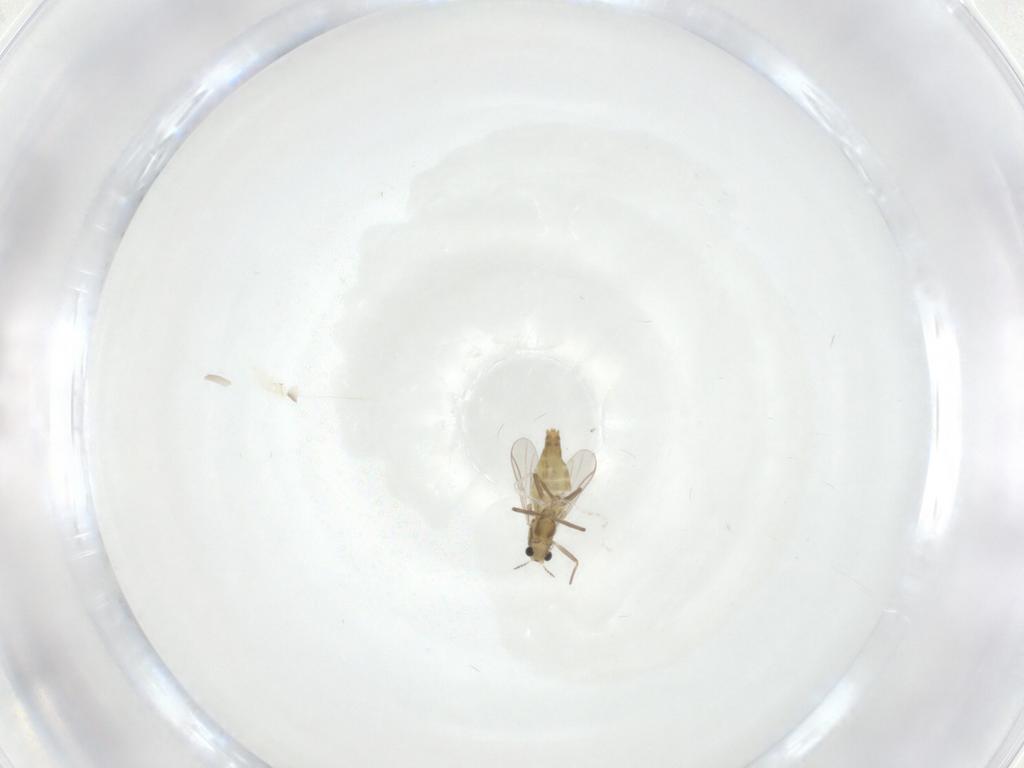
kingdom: Animalia
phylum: Arthropoda
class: Insecta
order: Diptera
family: Chironomidae
